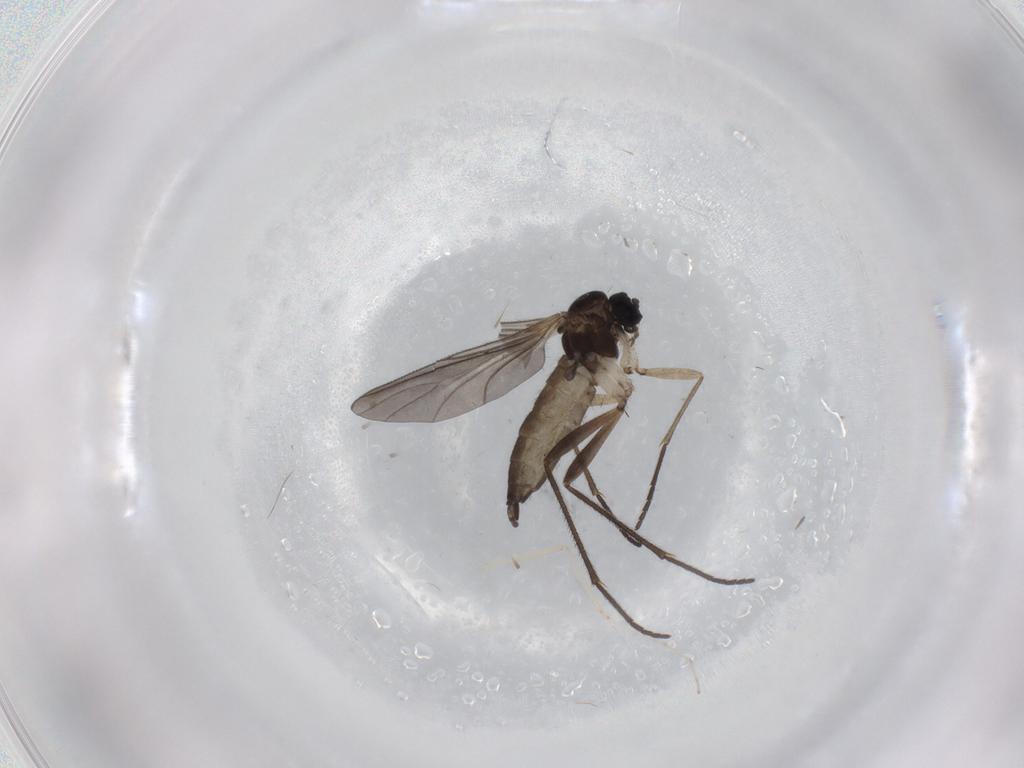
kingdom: Animalia
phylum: Arthropoda
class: Insecta
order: Diptera
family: Sciaridae
